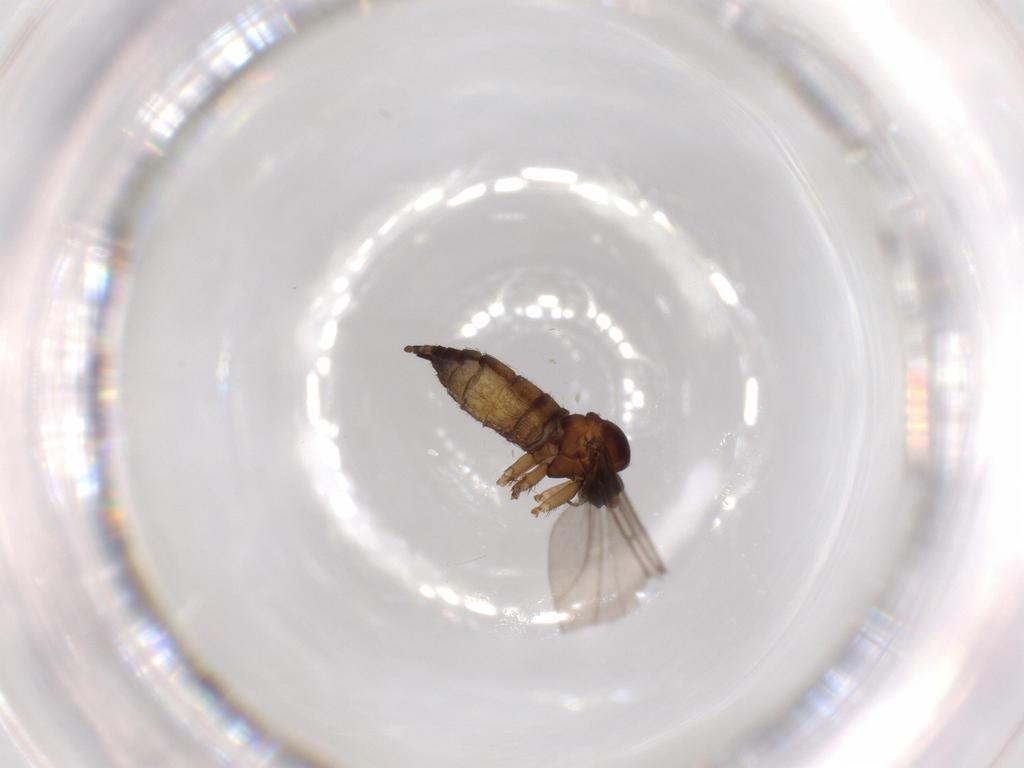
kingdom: Animalia
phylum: Arthropoda
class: Insecta
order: Diptera
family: Sciaridae
